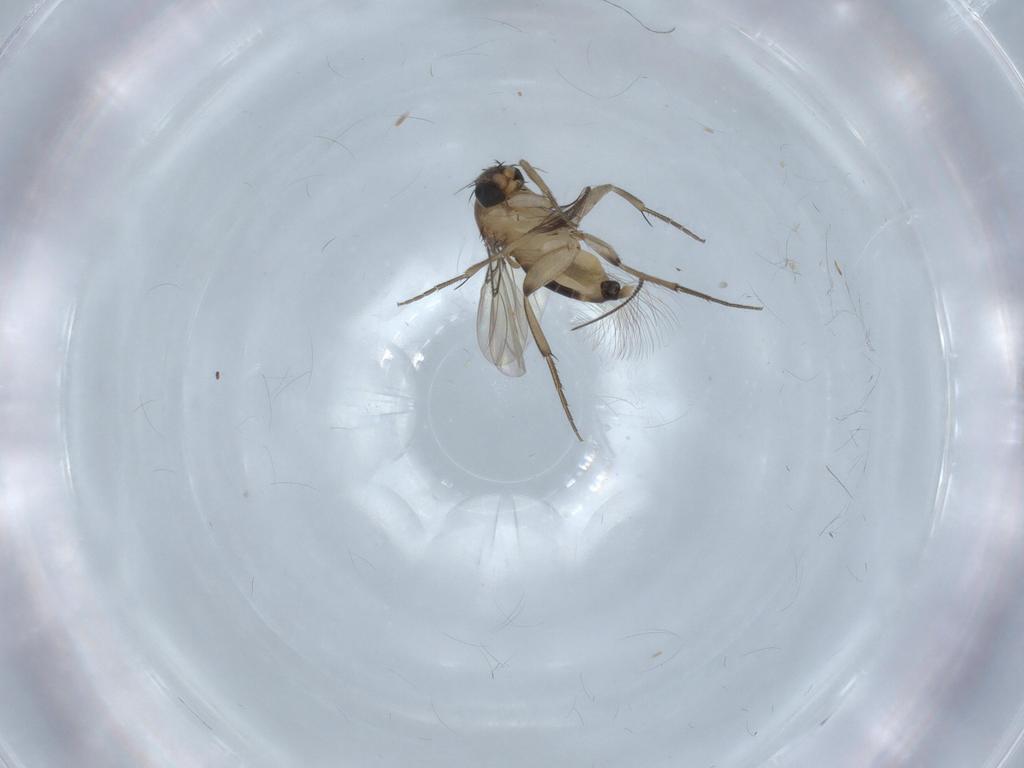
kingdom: Animalia
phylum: Arthropoda
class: Insecta
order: Diptera
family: Phoridae
